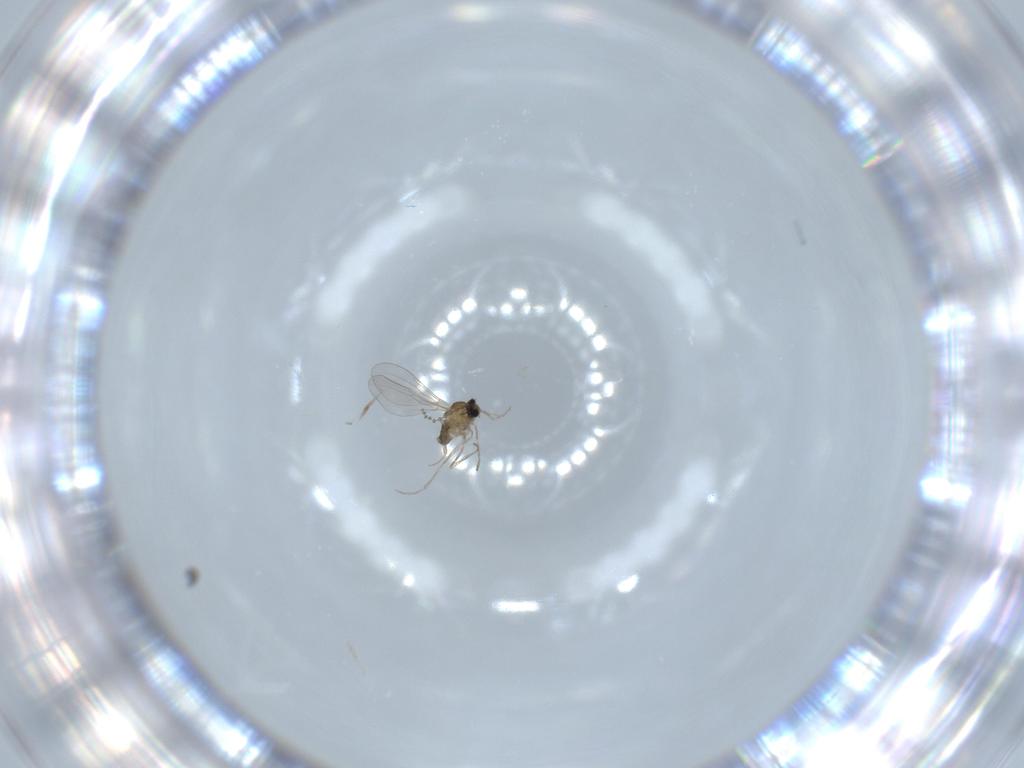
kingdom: Animalia
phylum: Arthropoda
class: Insecta
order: Diptera
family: Cecidomyiidae
